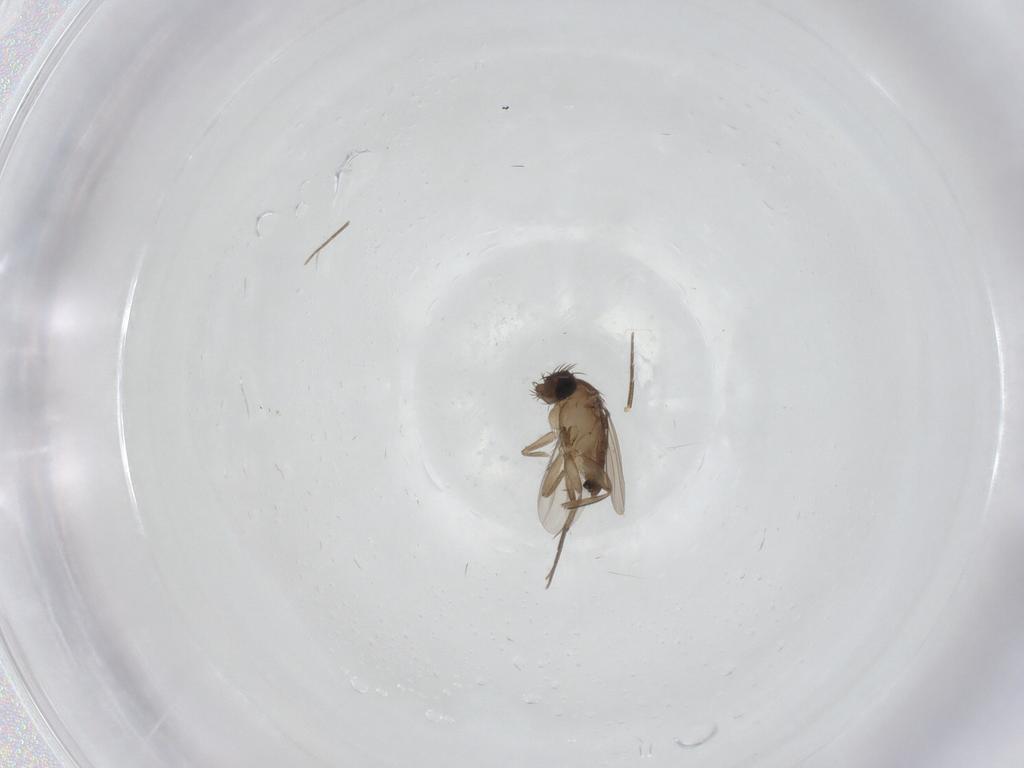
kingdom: Animalia
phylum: Arthropoda
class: Insecta
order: Diptera
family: Phoridae
